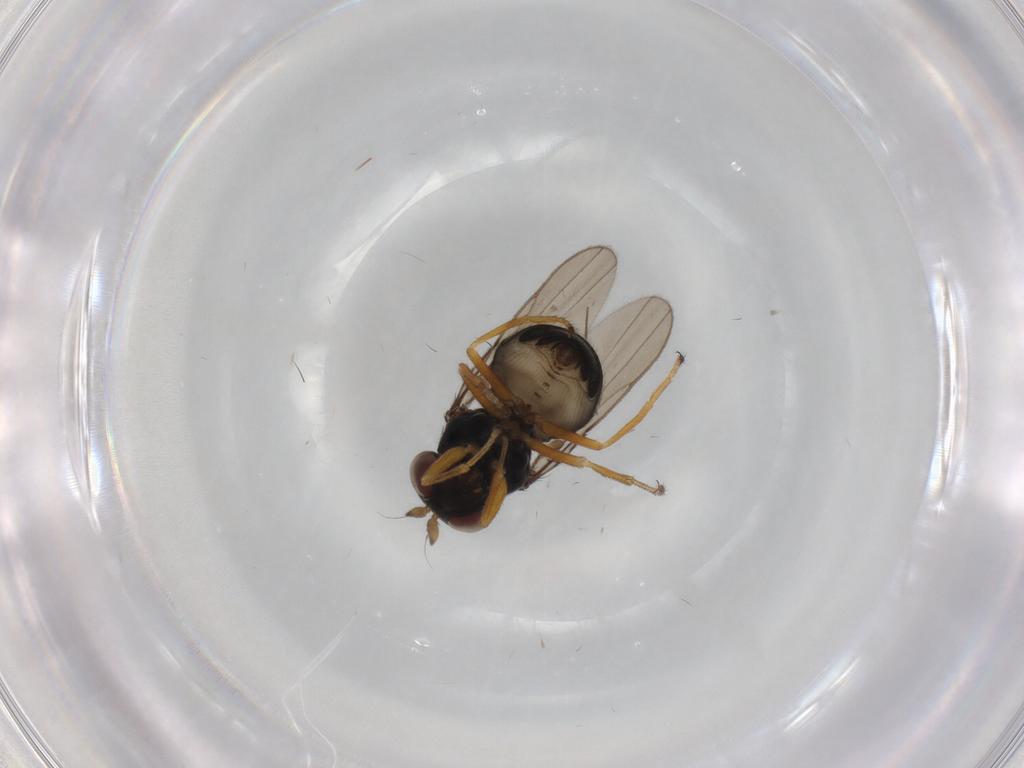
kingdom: Animalia
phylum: Arthropoda
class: Insecta
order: Diptera
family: Ephydridae
